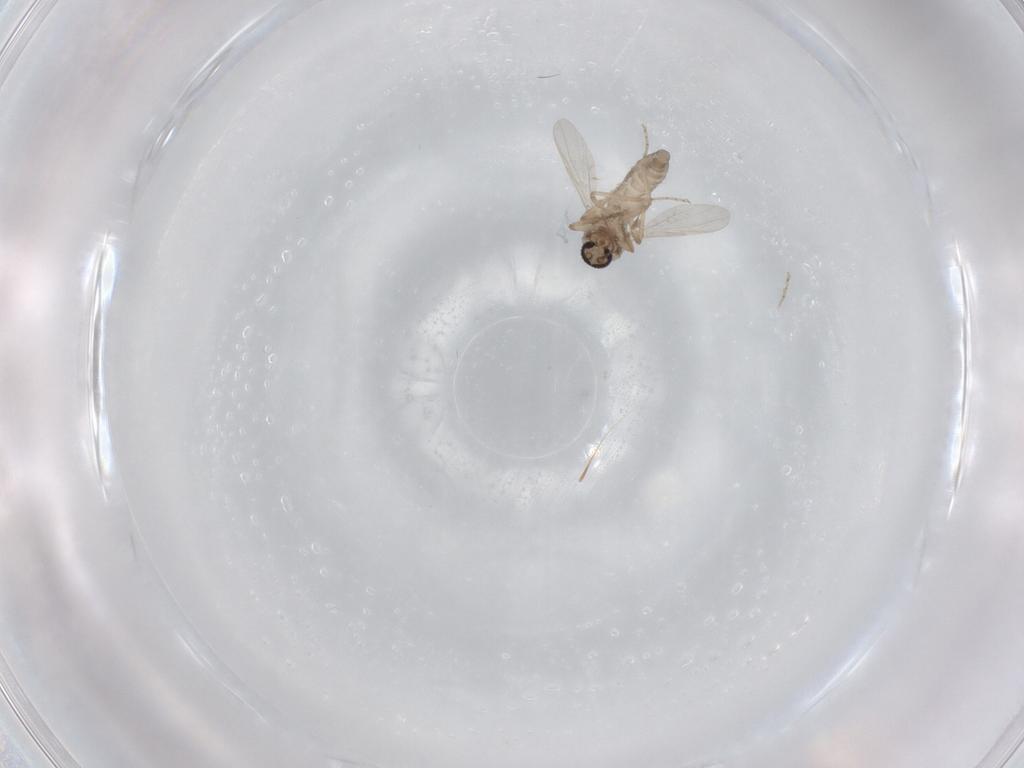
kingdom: Animalia
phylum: Arthropoda
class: Insecta
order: Diptera
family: Ceratopogonidae
